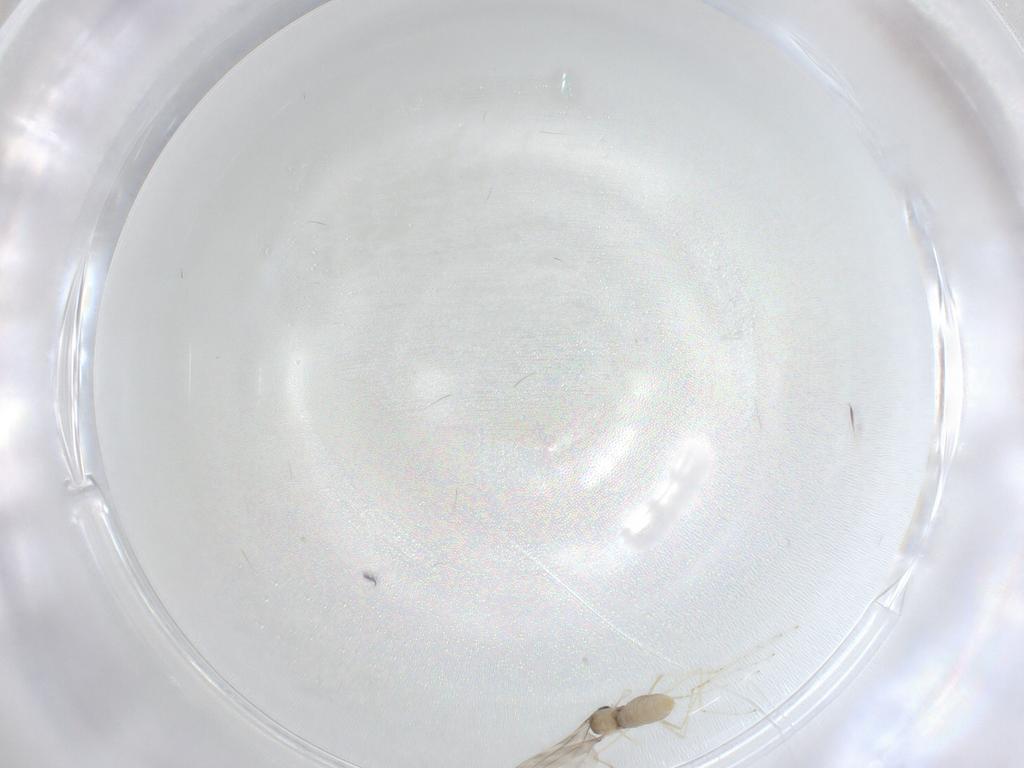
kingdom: Animalia
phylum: Arthropoda
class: Insecta
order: Diptera
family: Cecidomyiidae
